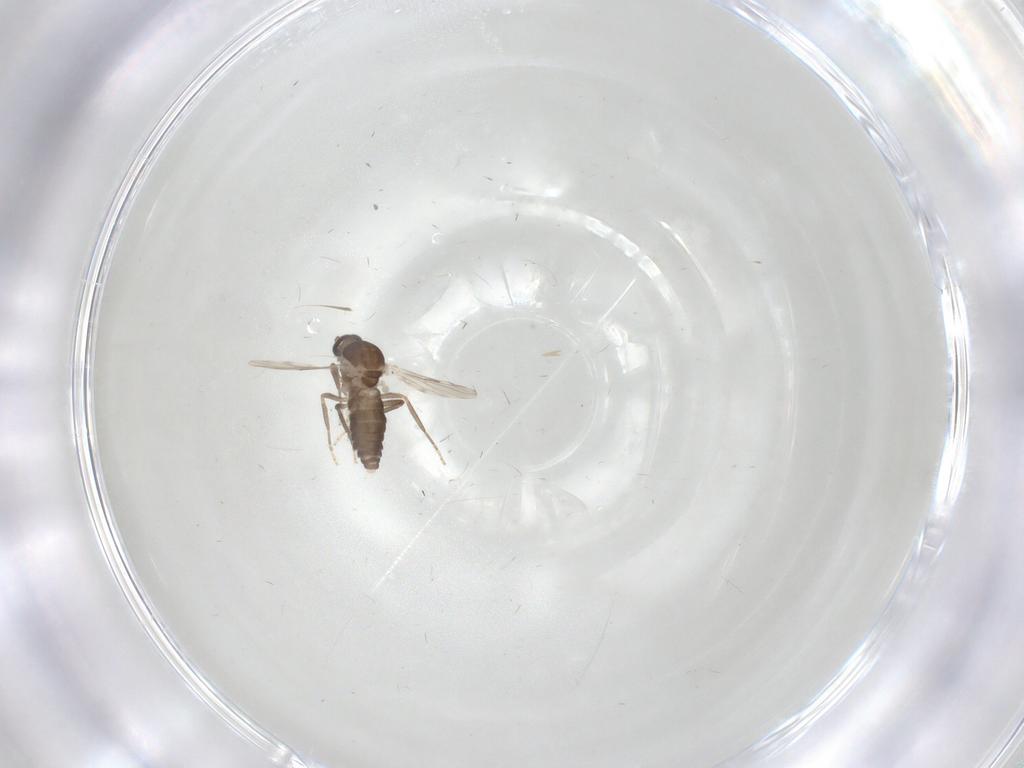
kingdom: Animalia
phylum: Arthropoda
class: Insecta
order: Diptera
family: Ceratopogonidae
